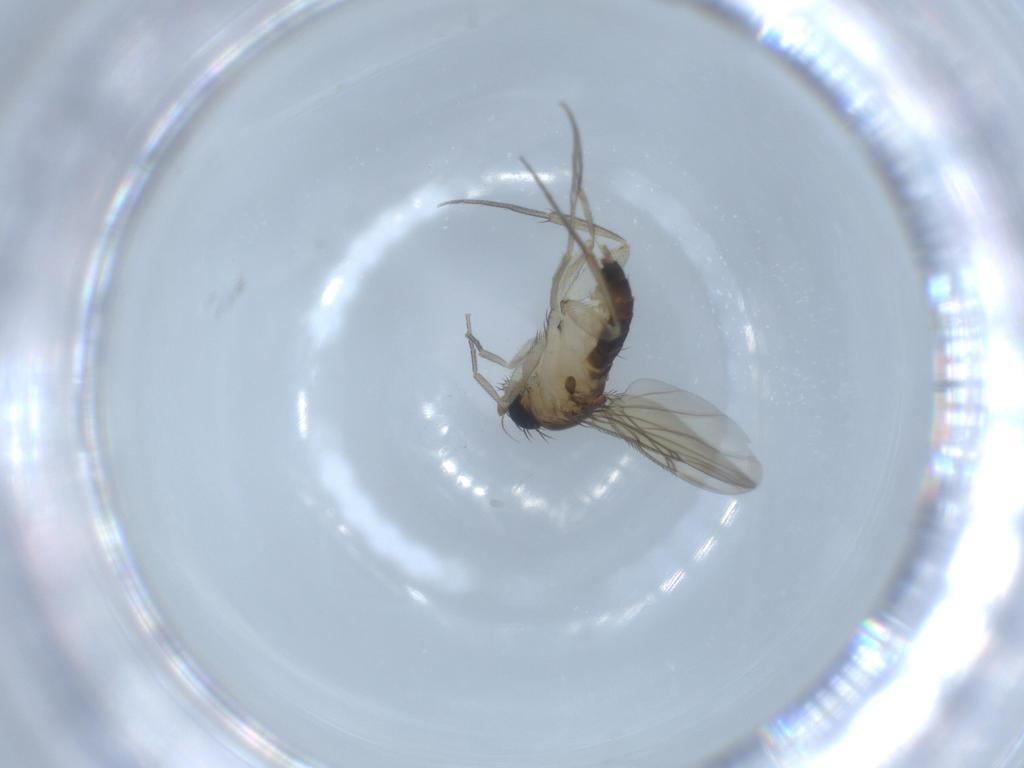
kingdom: Animalia
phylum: Arthropoda
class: Insecta
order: Diptera
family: Phoridae
